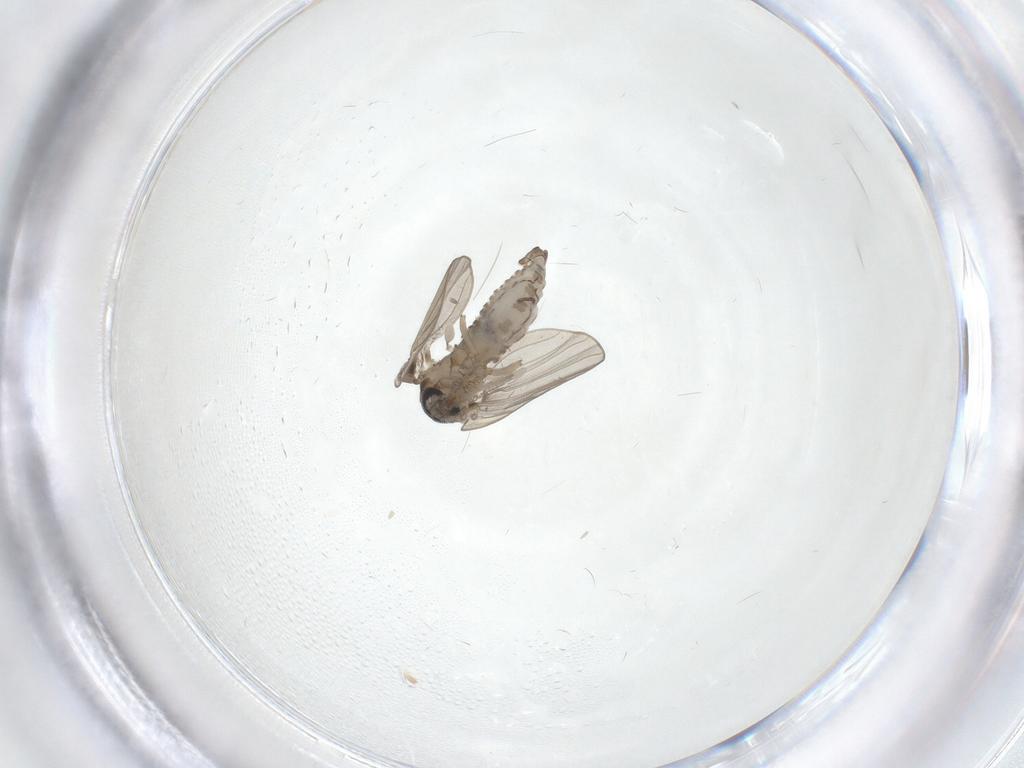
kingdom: Animalia
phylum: Arthropoda
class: Insecta
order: Diptera
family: Psychodidae
